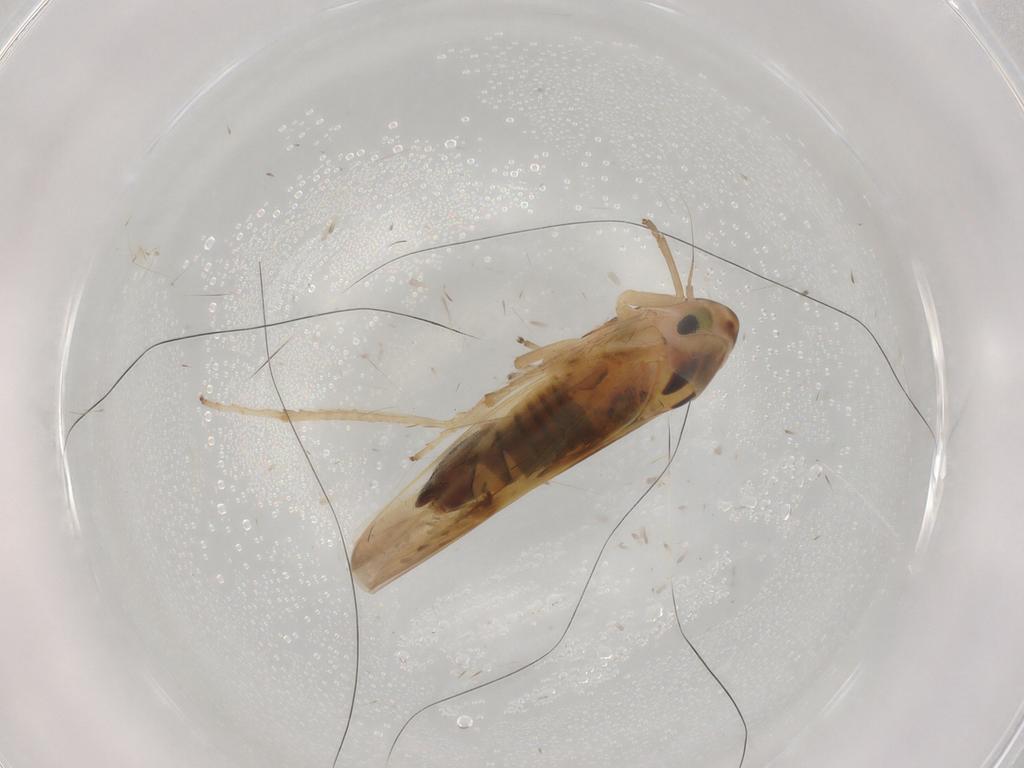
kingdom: Animalia
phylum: Arthropoda
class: Insecta
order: Hemiptera
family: Cicadellidae
